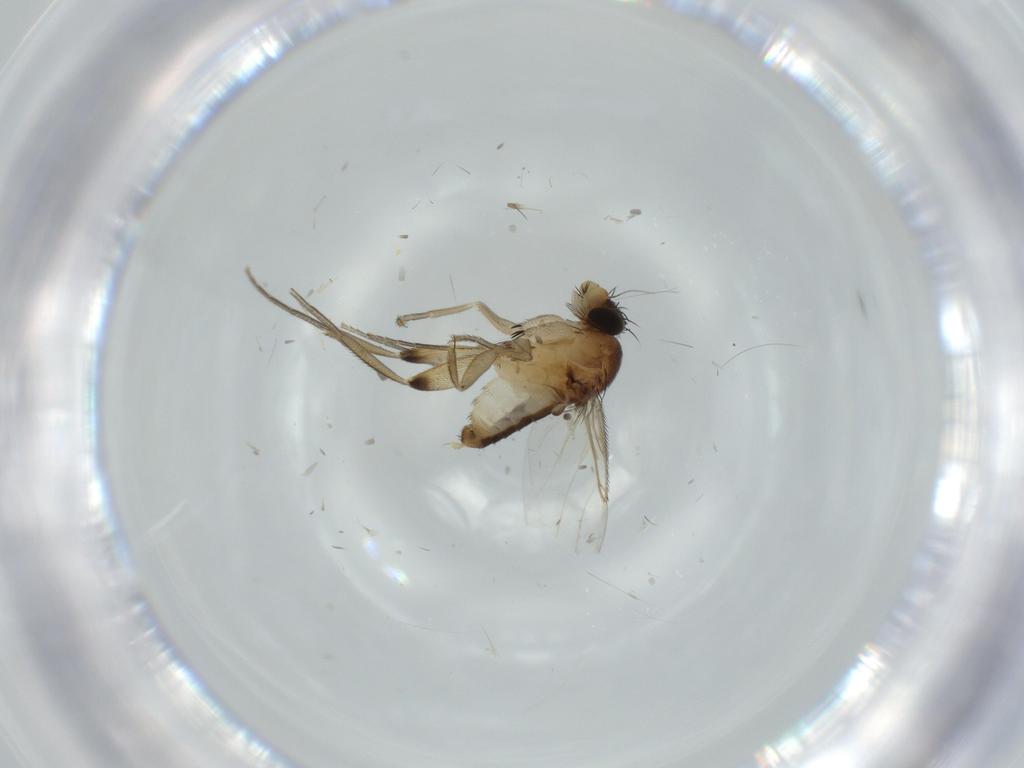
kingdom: Animalia
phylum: Arthropoda
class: Insecta
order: Diptera
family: Phoridae
